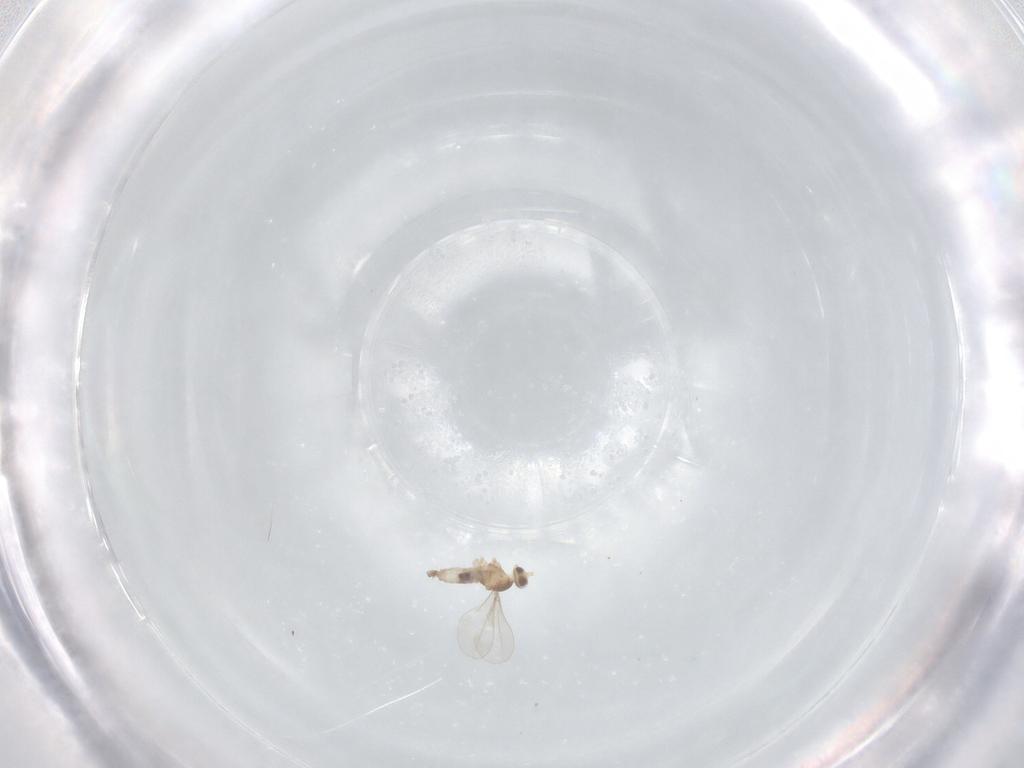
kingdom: Animalia
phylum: Arthropoda
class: Insecta
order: Diptera
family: Cecidomyiidae
